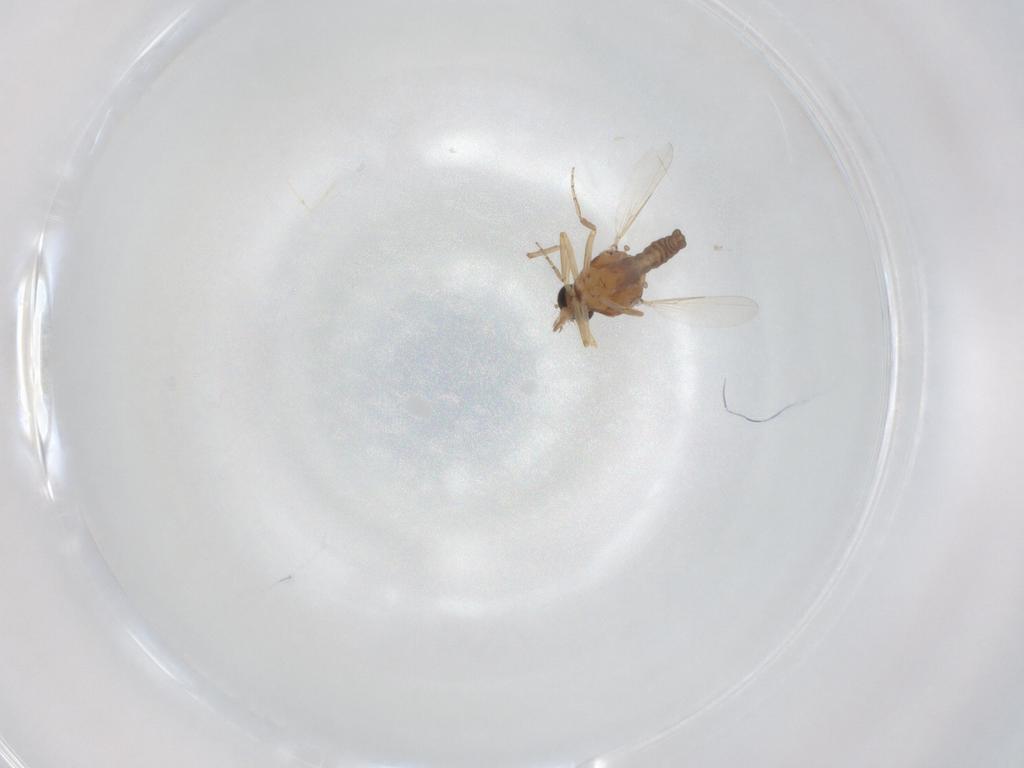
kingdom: Animalia
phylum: Arthropoda
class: Insecta
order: Diptera
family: Ceratopogonidae
